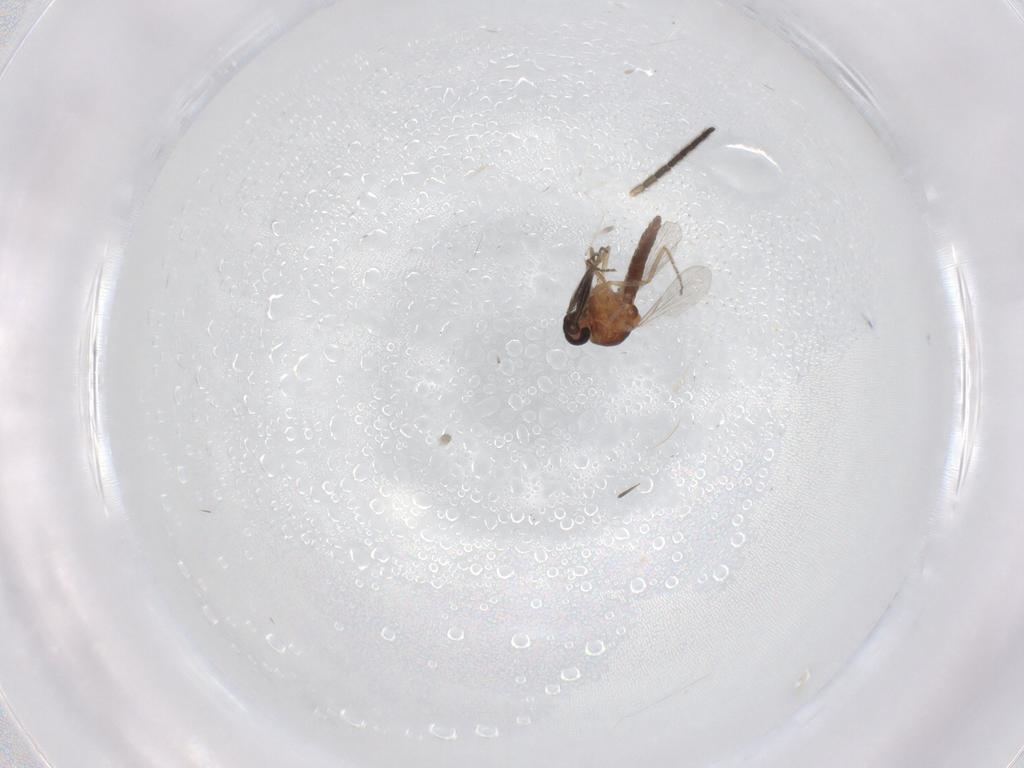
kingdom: Animalia
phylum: Arthropoda
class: Insecta
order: Diptera
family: Ceratopogonidae
